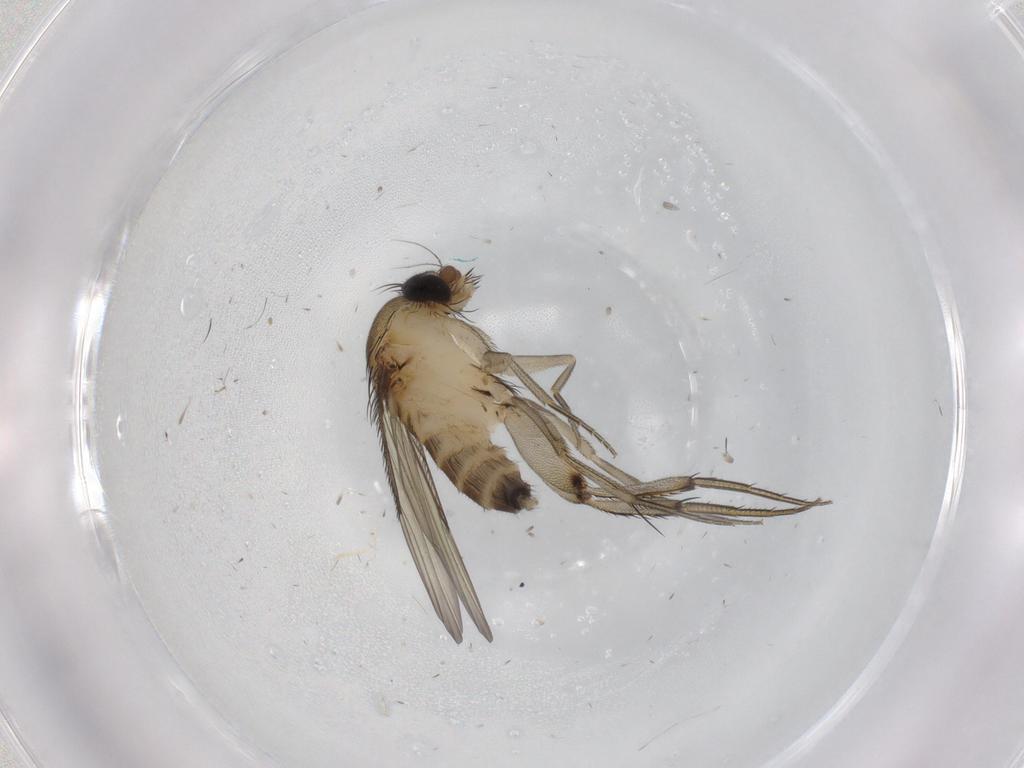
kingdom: Animalia
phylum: Arthropoda
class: Insecta
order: Diptera
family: Phoridae
